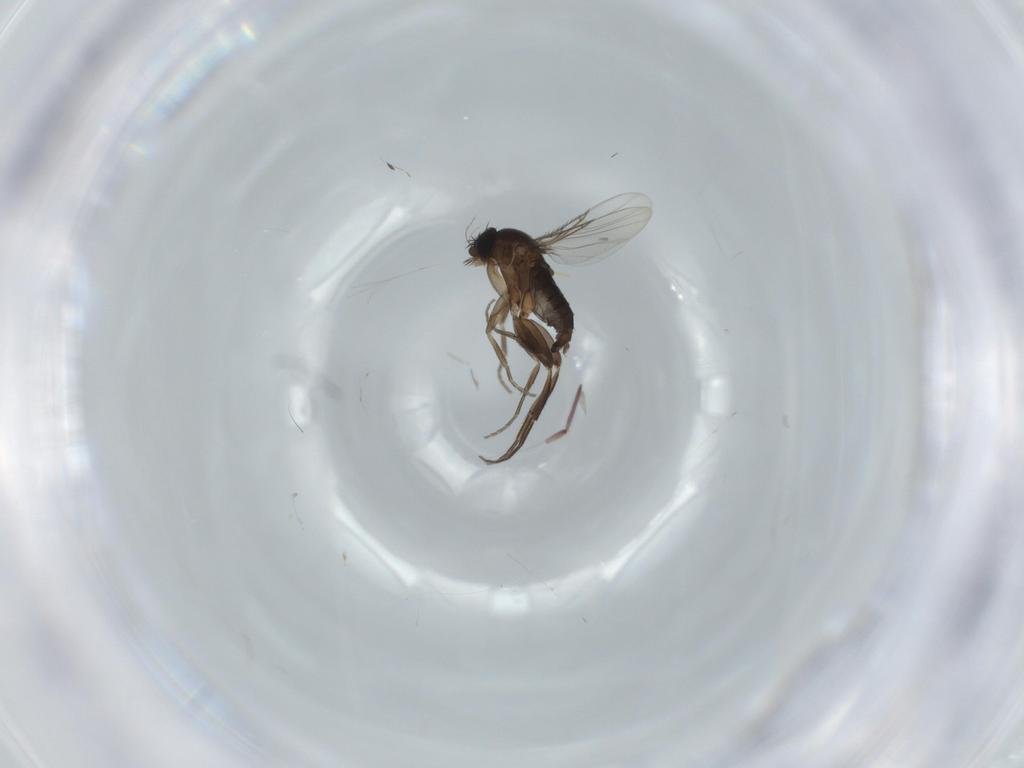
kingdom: Animalia
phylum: Arthropoda
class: Insecta
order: Diptera
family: Phoridae
